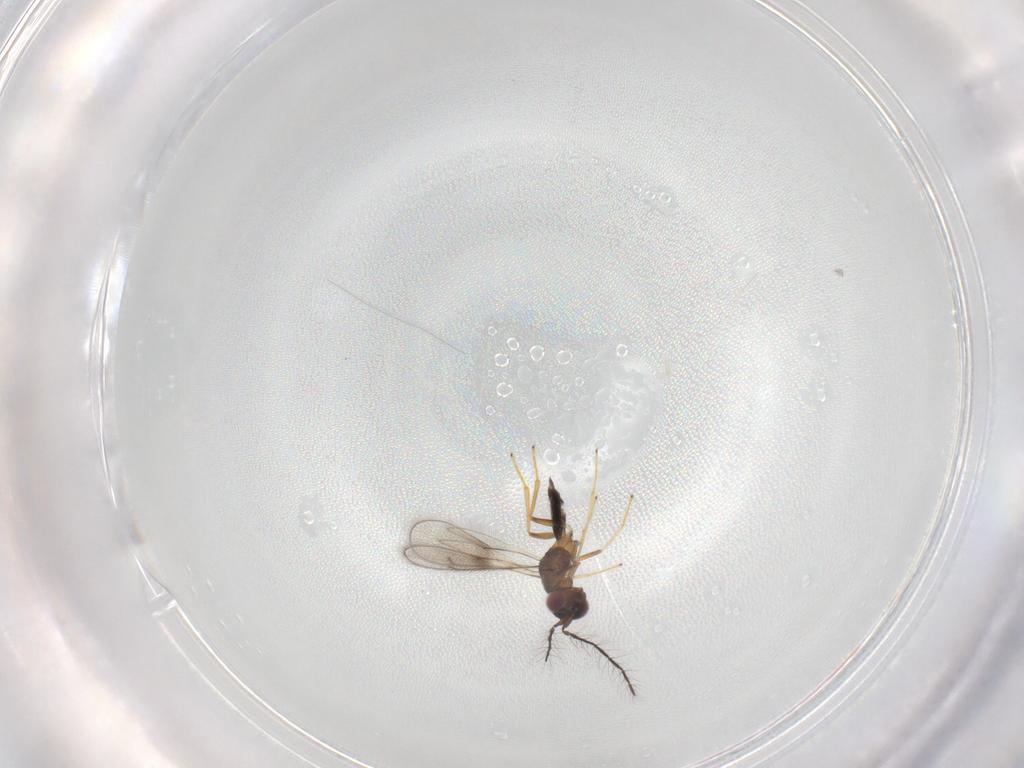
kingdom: Animalia
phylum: Arthropoda
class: Insecta
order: Hymenoptera
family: Eulophidae
